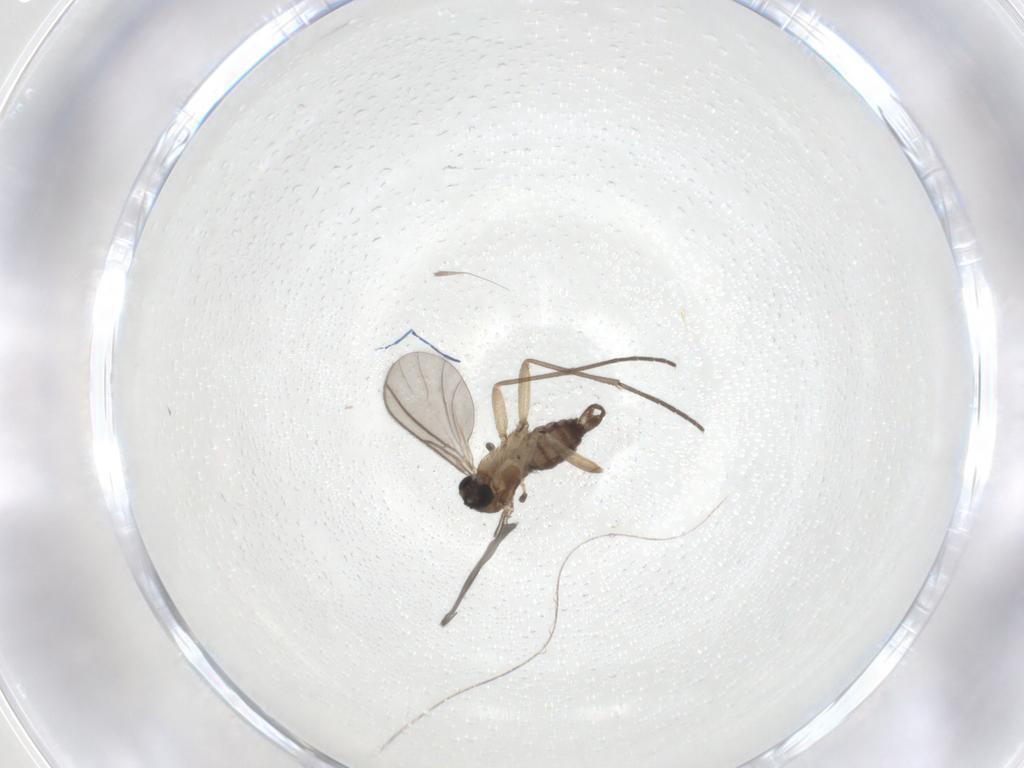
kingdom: Animalia
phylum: Arthropoda
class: Insecta
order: Diptera
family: Sciaridae
